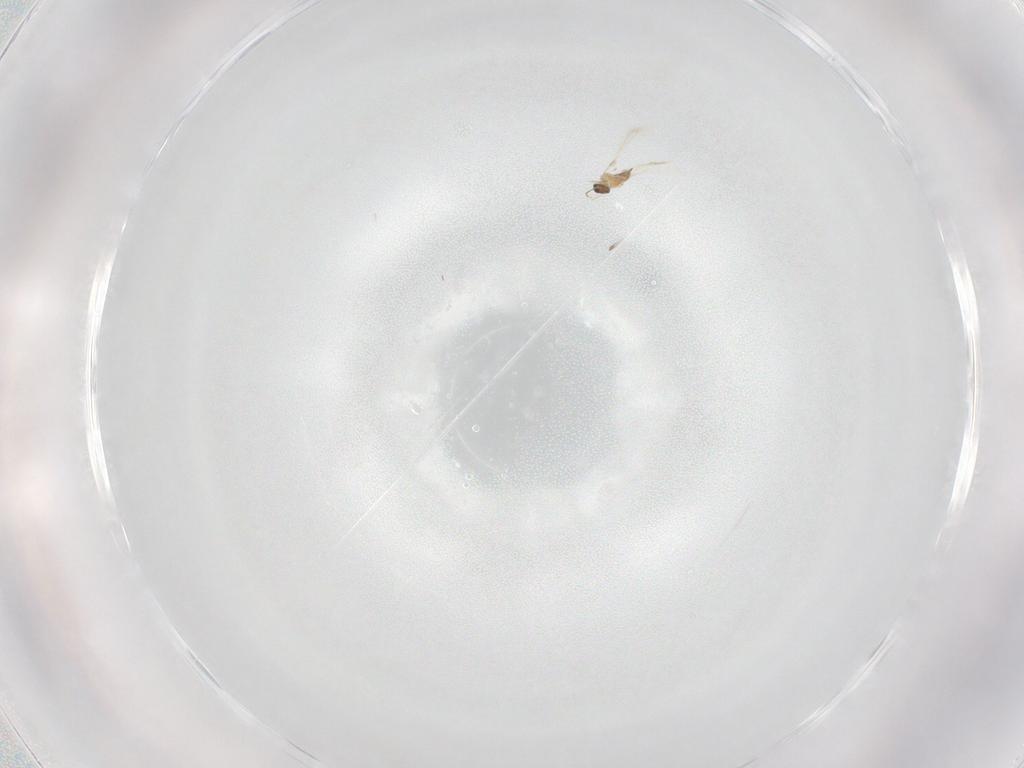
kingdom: Animalia
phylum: Arthropoda
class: Insecta
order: Hymenoptera
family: Mymaridae
